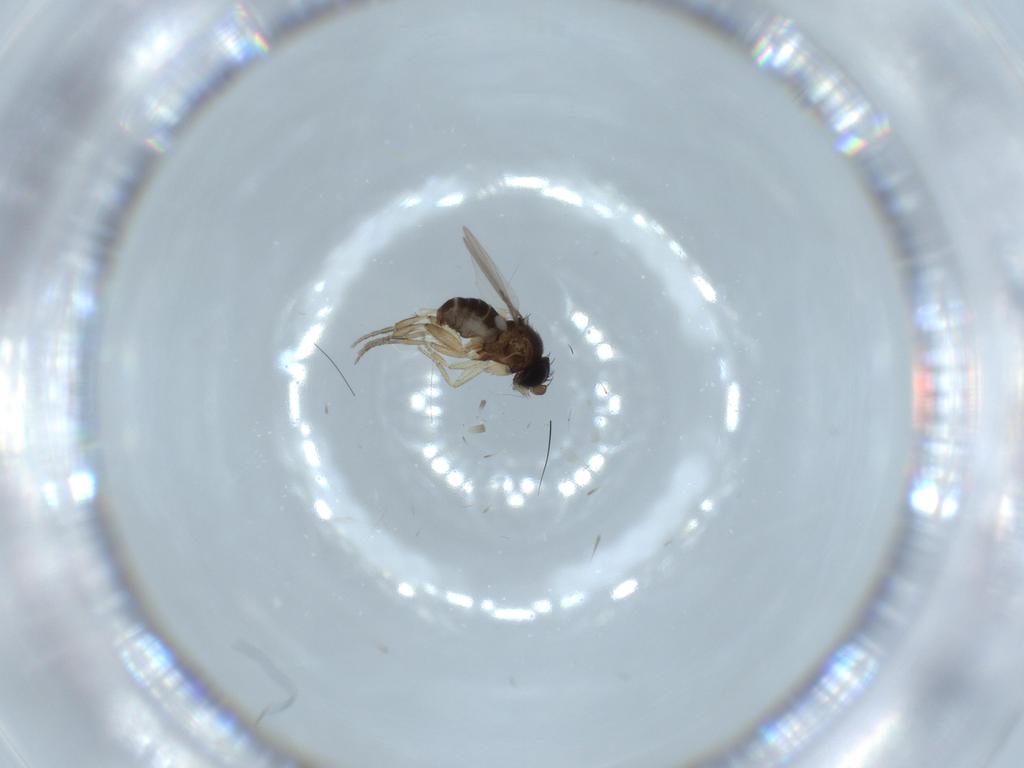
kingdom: Animalia
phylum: Arthropoda
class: Insecta
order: Diptera
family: Phoridae
